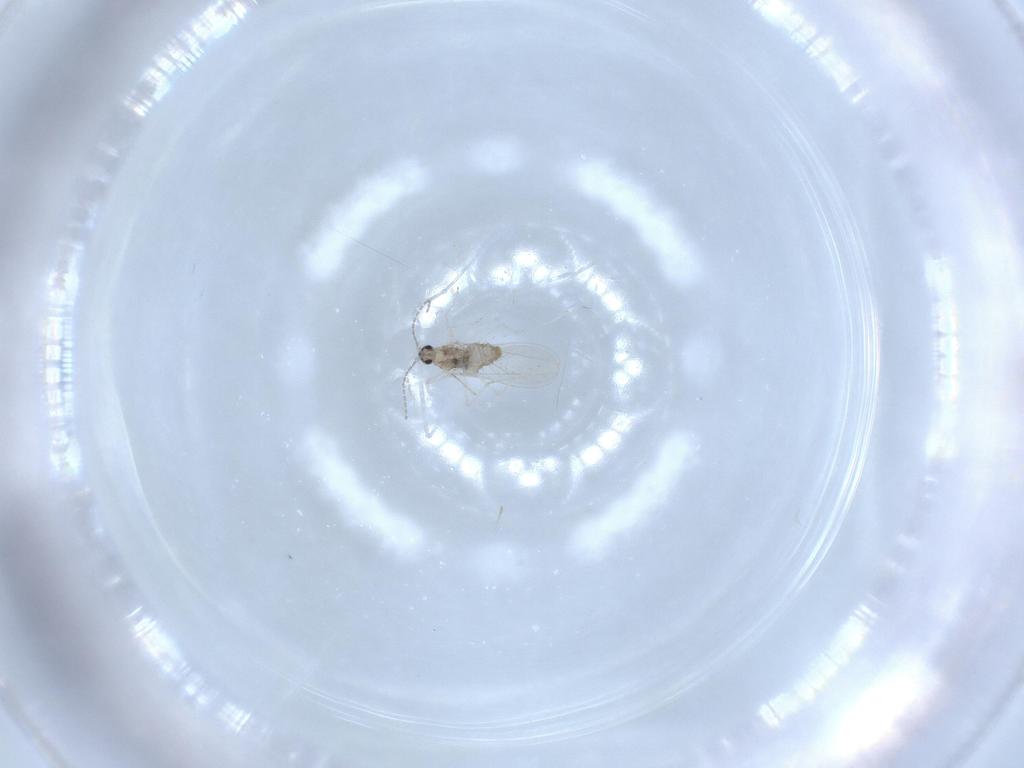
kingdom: Animalia
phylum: Arthropoda
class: Insecta
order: Diptera
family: Cecidomyiidae
